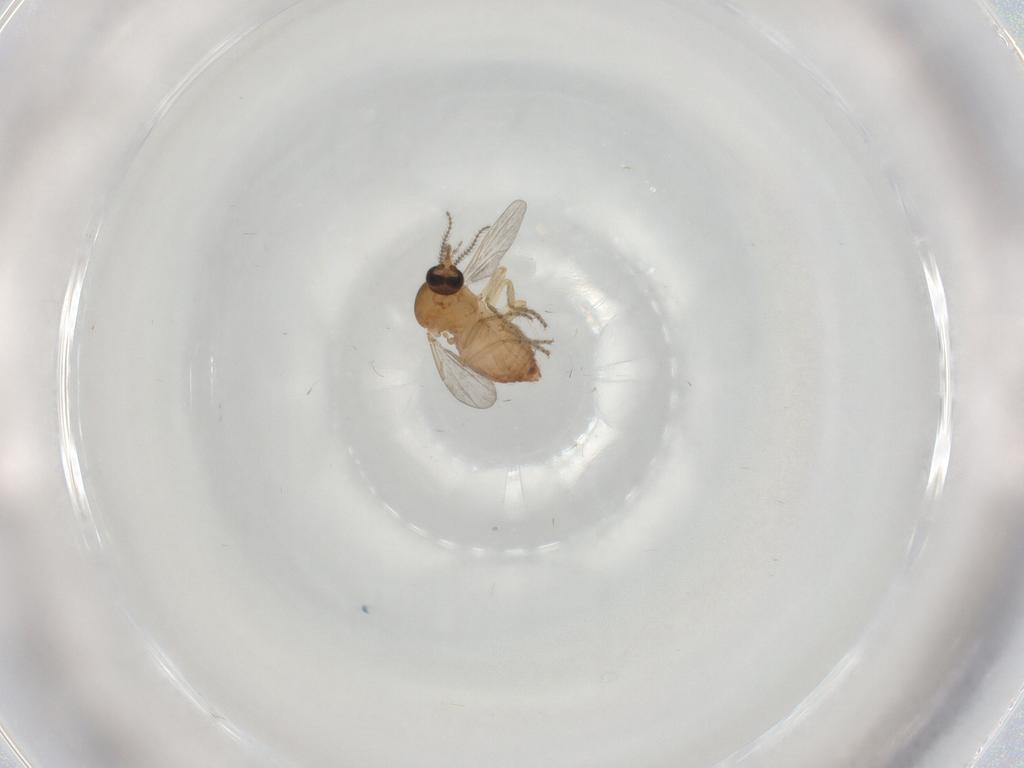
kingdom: Animalia
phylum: Arthropoda
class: Insecta
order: Diptera
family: Ceratopogonidae
